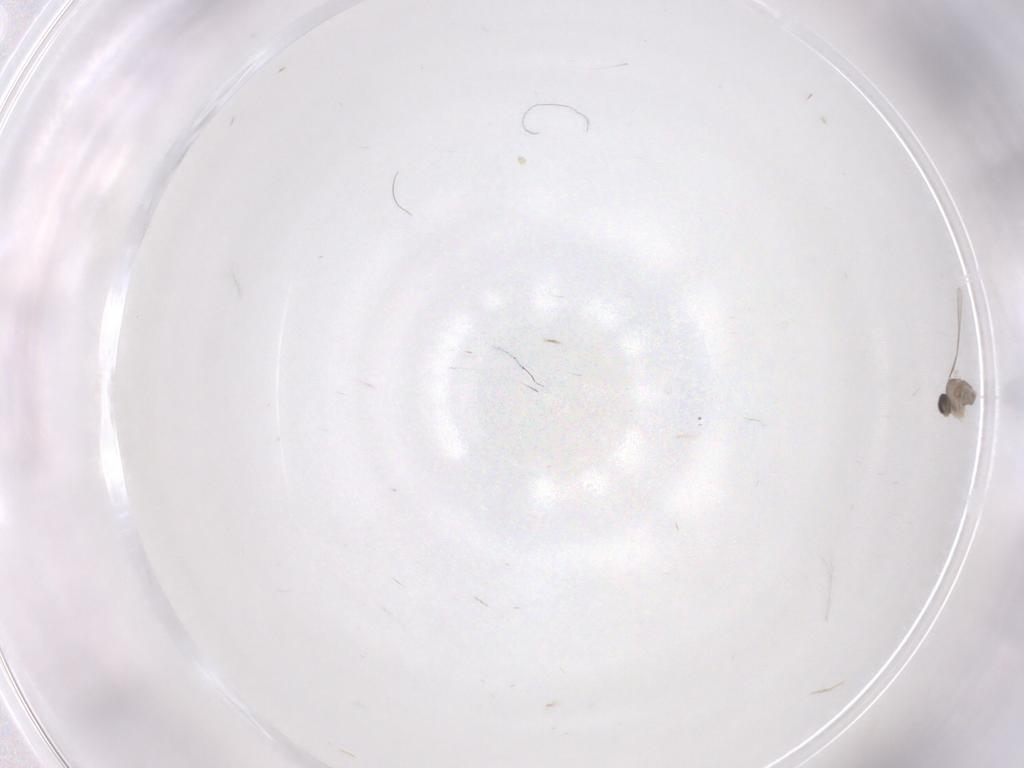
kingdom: Animalia
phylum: Arthropoda
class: Insecta
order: Diptera
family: Cecidomyiidae
